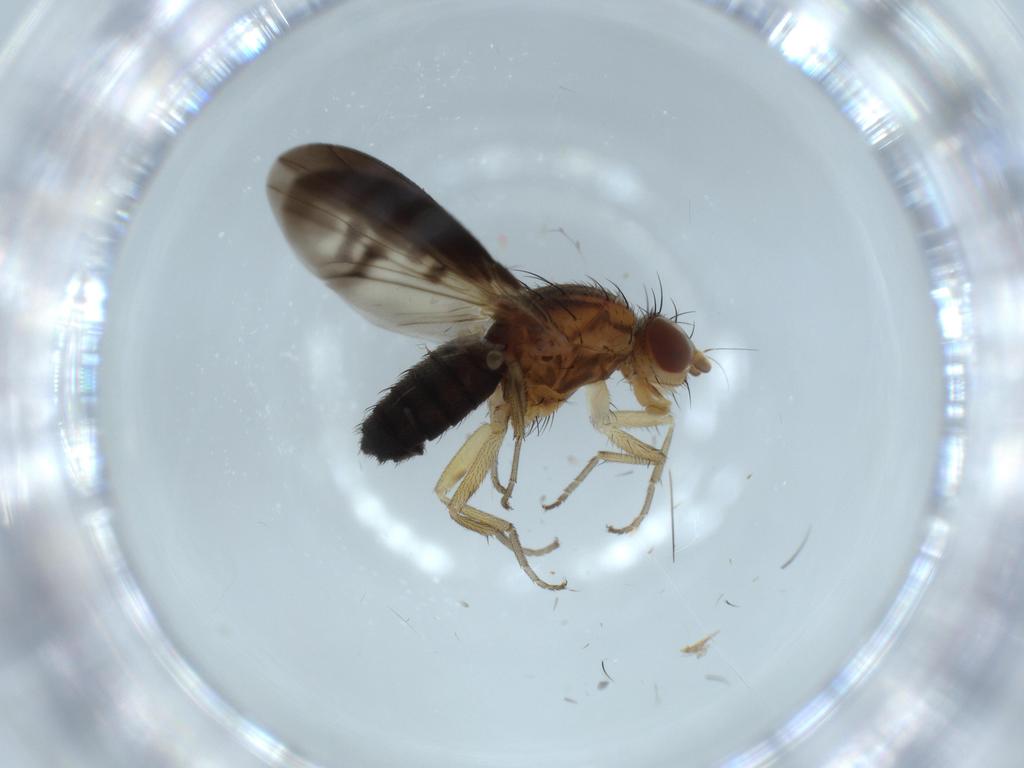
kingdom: Animalia
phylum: Arthropoda
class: Insecta
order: Diptera
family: Heleomyzidae
